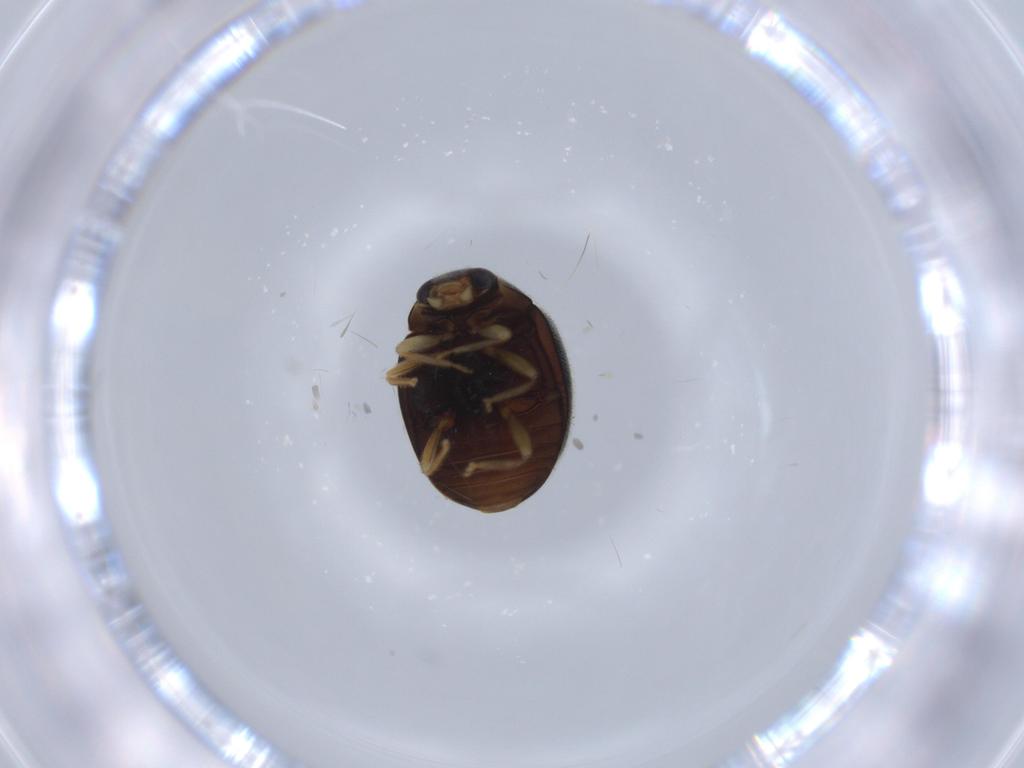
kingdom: Animalia
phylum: Arthropoda
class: Insecta
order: Coleoptera
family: Coccinellidae
